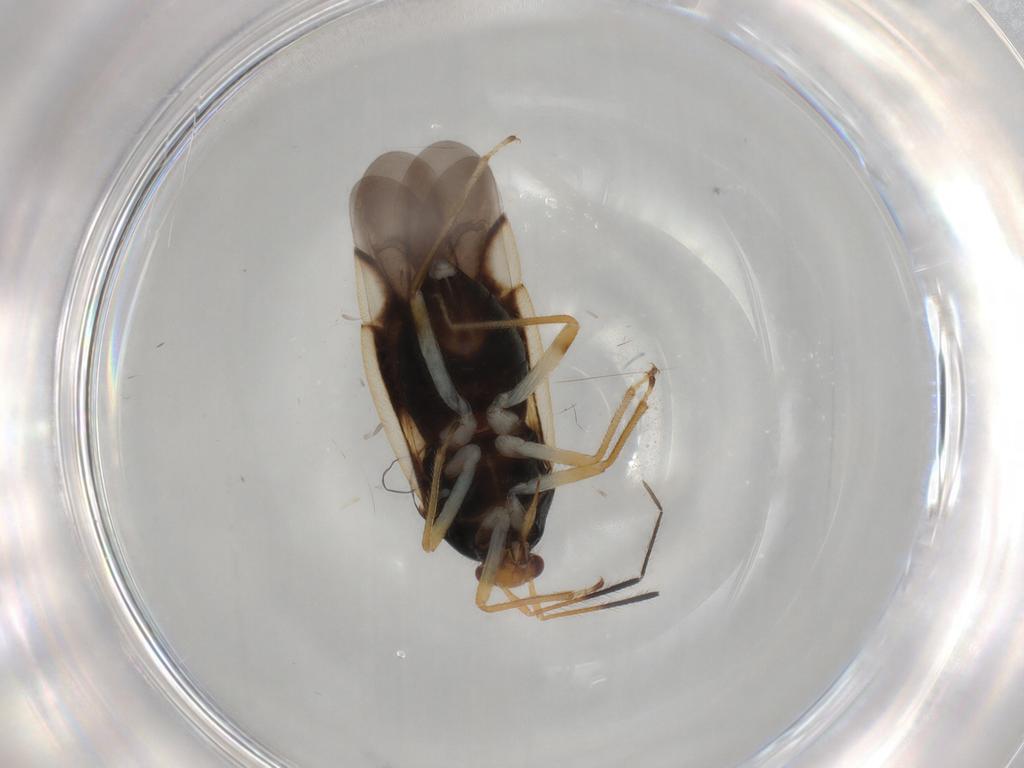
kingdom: Animalia
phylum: Arthropoda
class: Insecta
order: Hemiptera
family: Miridae
